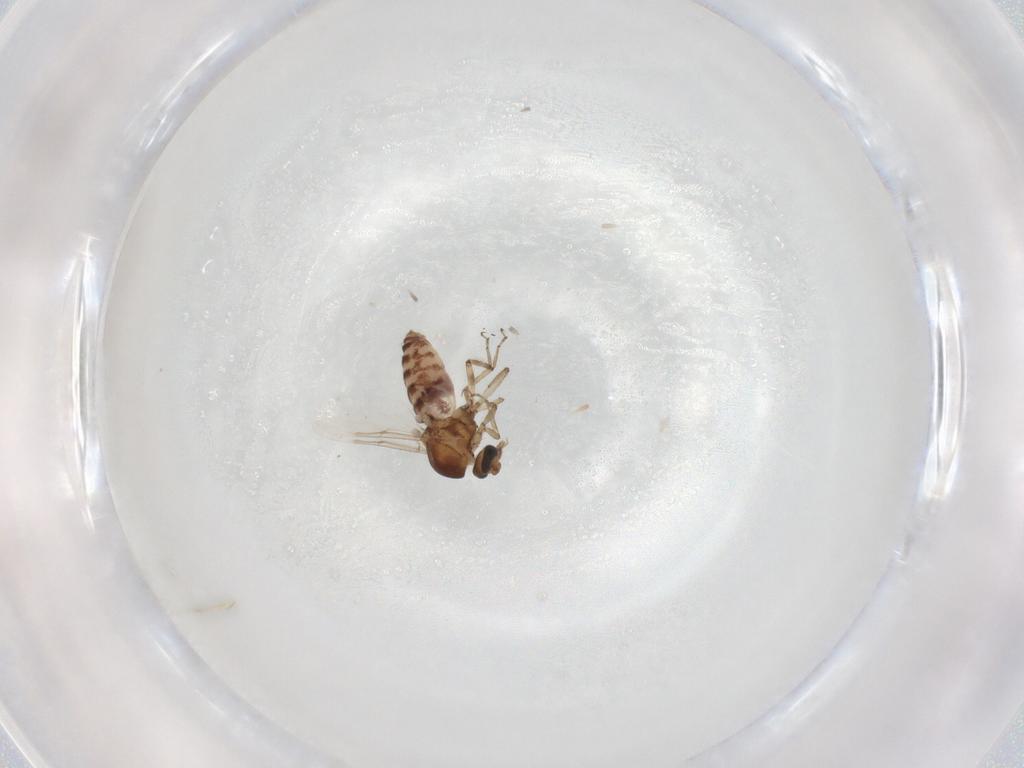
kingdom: Animalia
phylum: Arthropoda
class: Insecta
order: Diptera
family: Ceratopogonidae
